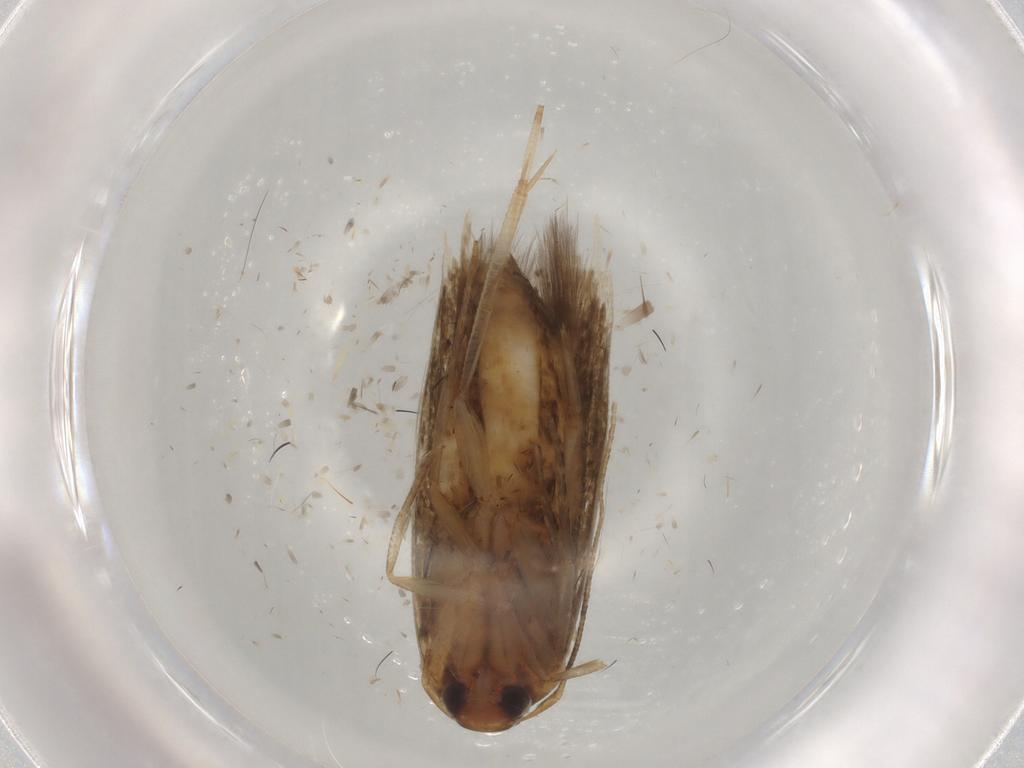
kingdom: Animalia
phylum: Arthropoda
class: Insecta
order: Lepidoptera
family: Cosmopterigidae
